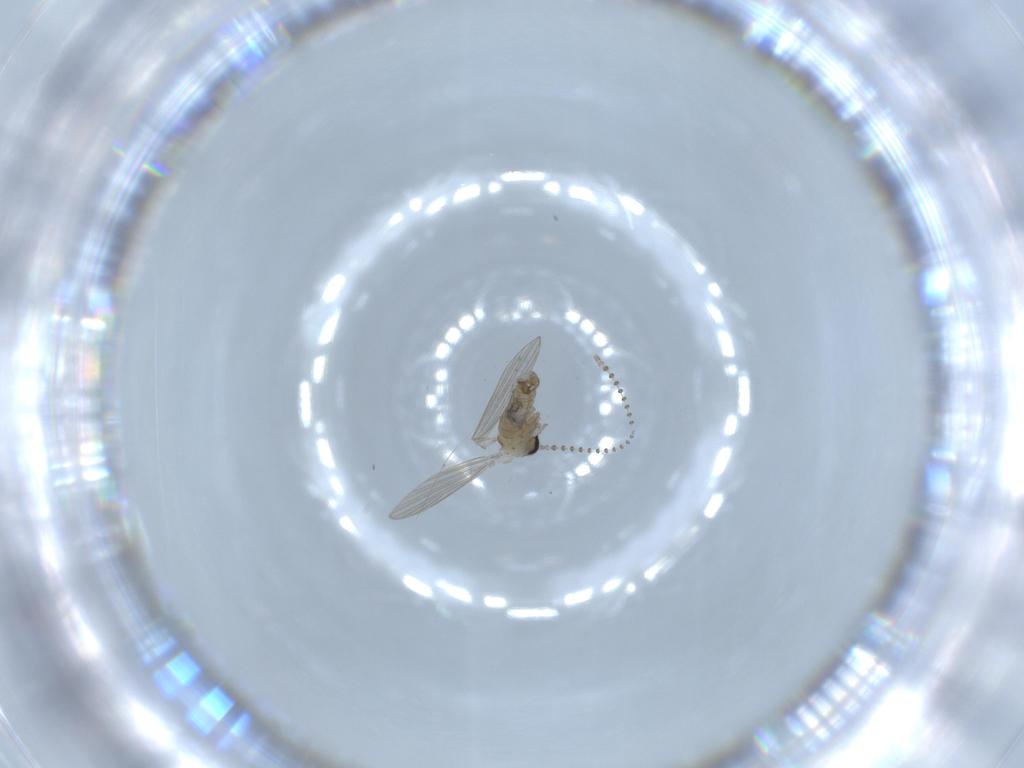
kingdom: Animalia
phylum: Arthropoda
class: Insecta
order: Diptera
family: Psychodidae
